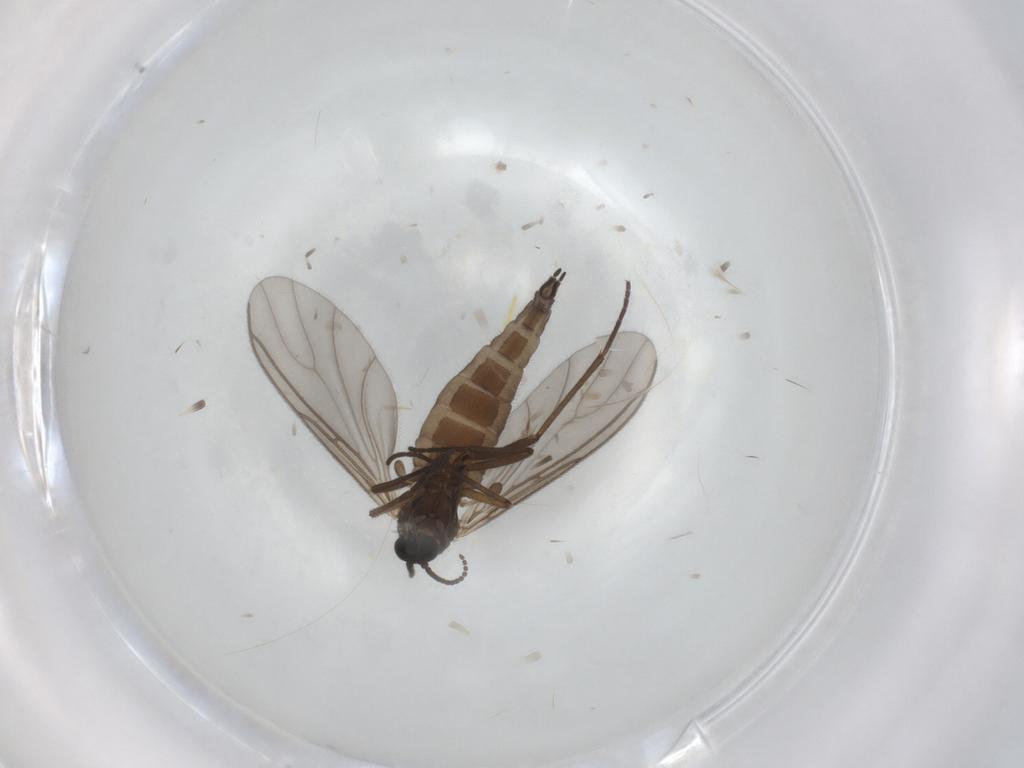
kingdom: Animalia
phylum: Arthropoda
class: Insecta
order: Diptera
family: Sciaridae
